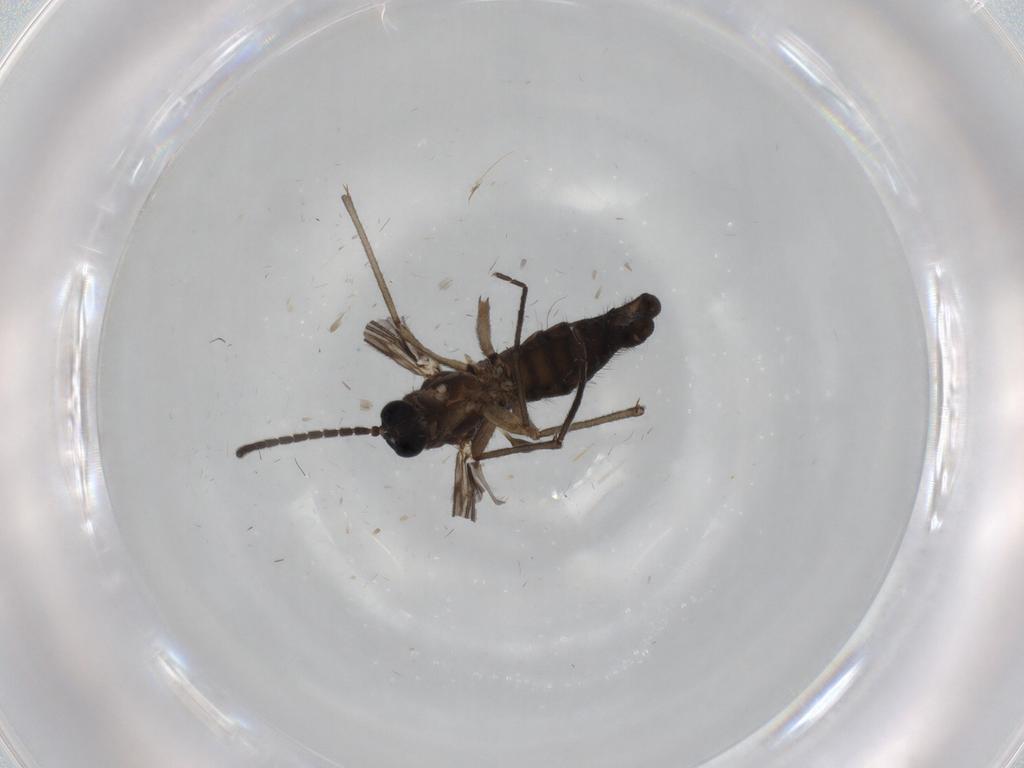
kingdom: Animalia
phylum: Arthropoda
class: Insecta
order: Diptera
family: Sciaridae
